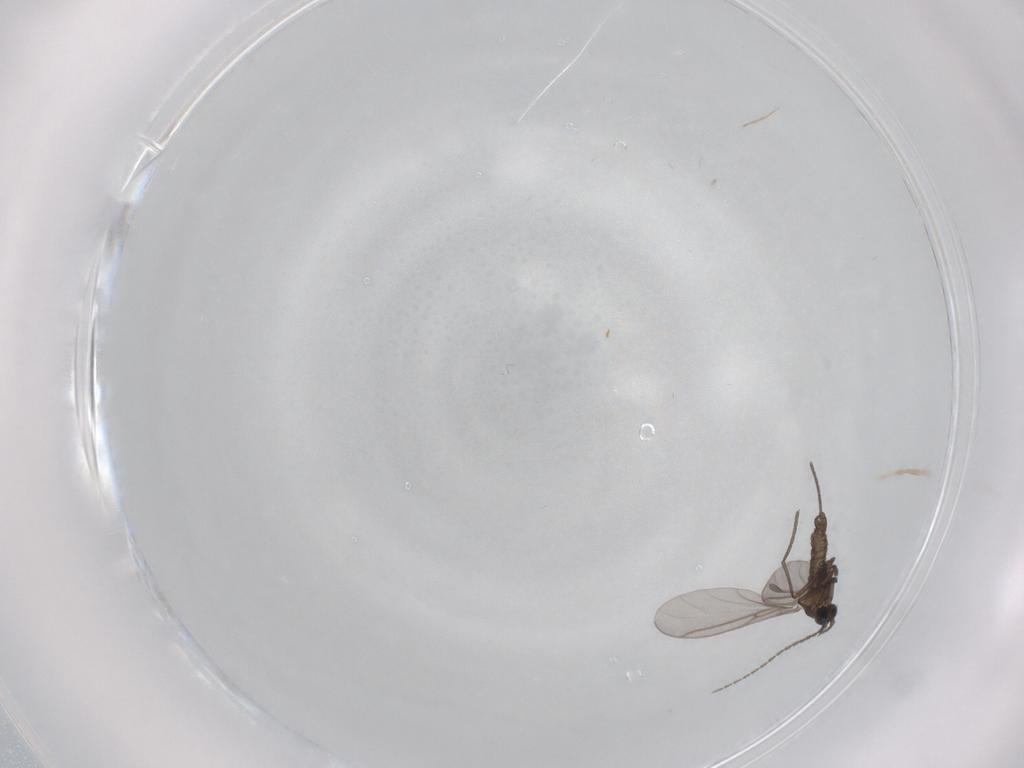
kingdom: Animalia
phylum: Arthropoda
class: Insecta
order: Diptera
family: Sciaridae
